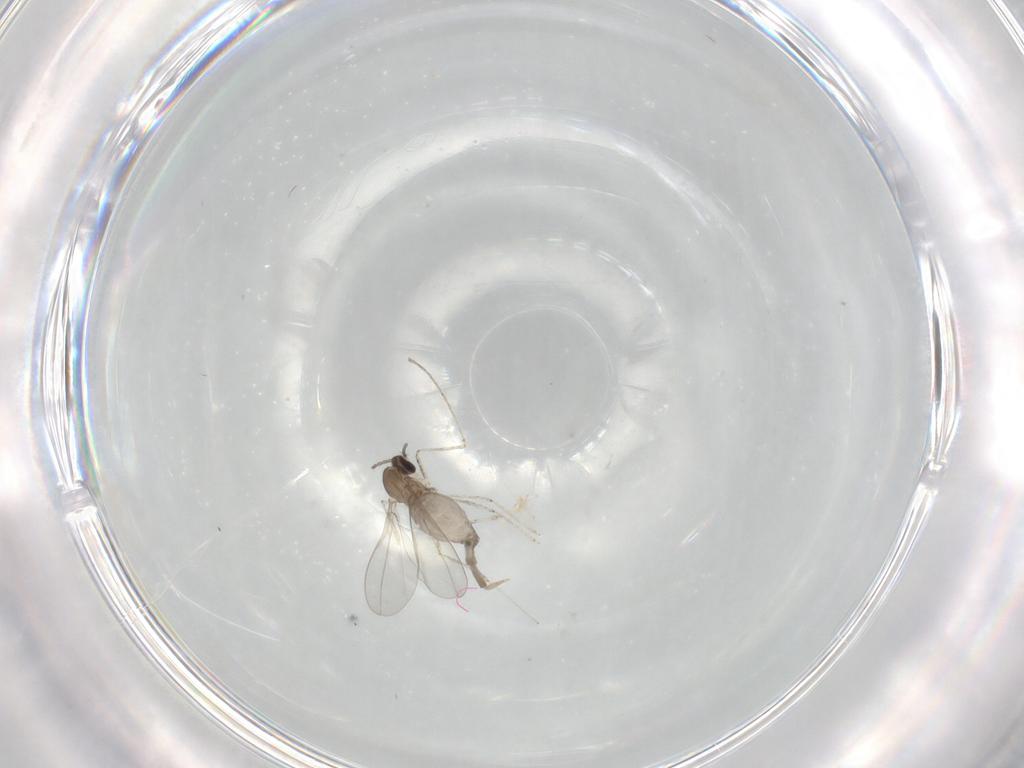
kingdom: Animalia
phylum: Arthropoda
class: Insecta
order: Diptera
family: Cecidomyiidae
